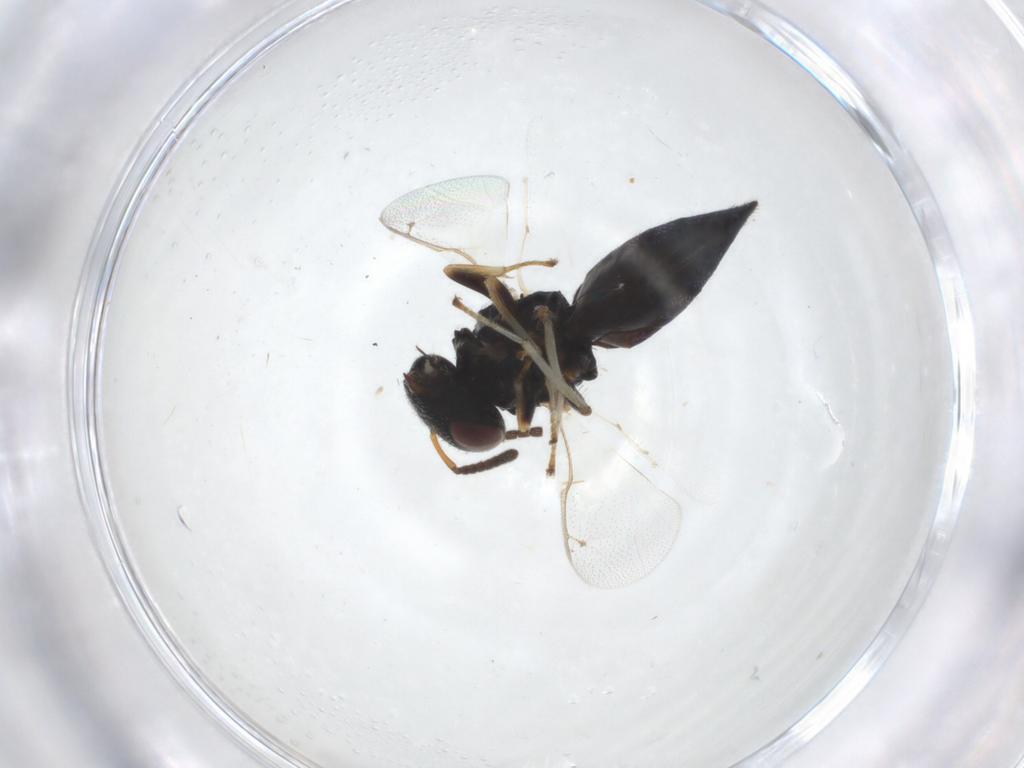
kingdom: Animalia
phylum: Arthropoda
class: Insecta
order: Hymenoptera
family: Pteromalidae
